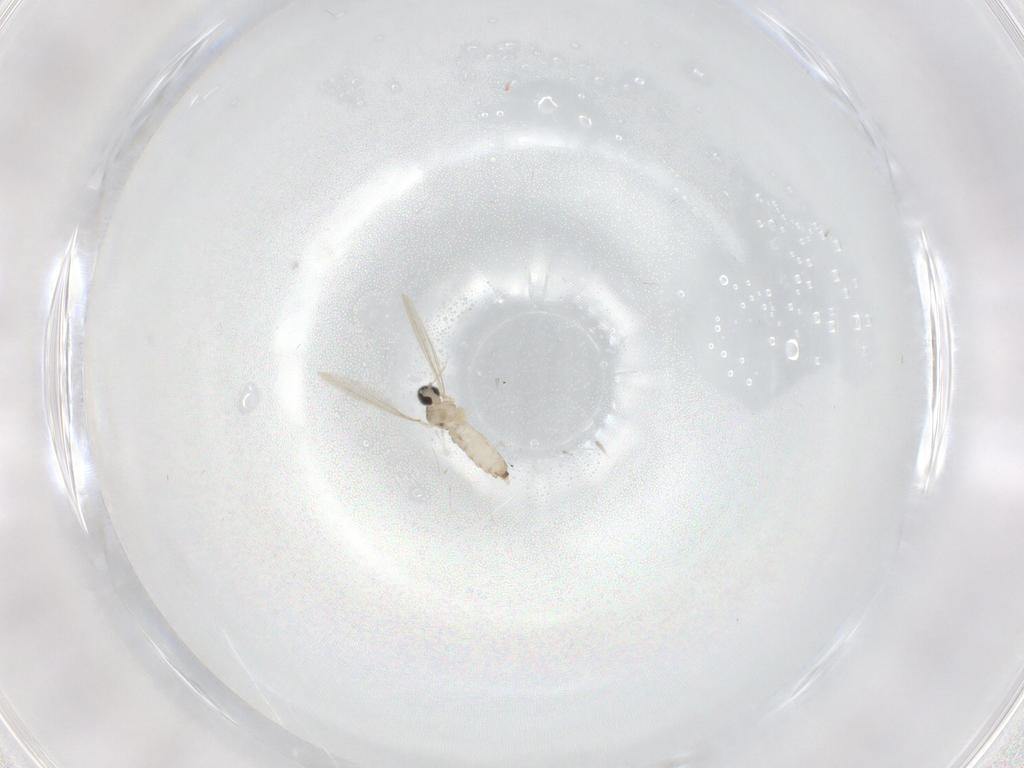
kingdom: Animalia
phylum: Arthropoda
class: Insecta
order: Diptera
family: Cecidomyiidae
